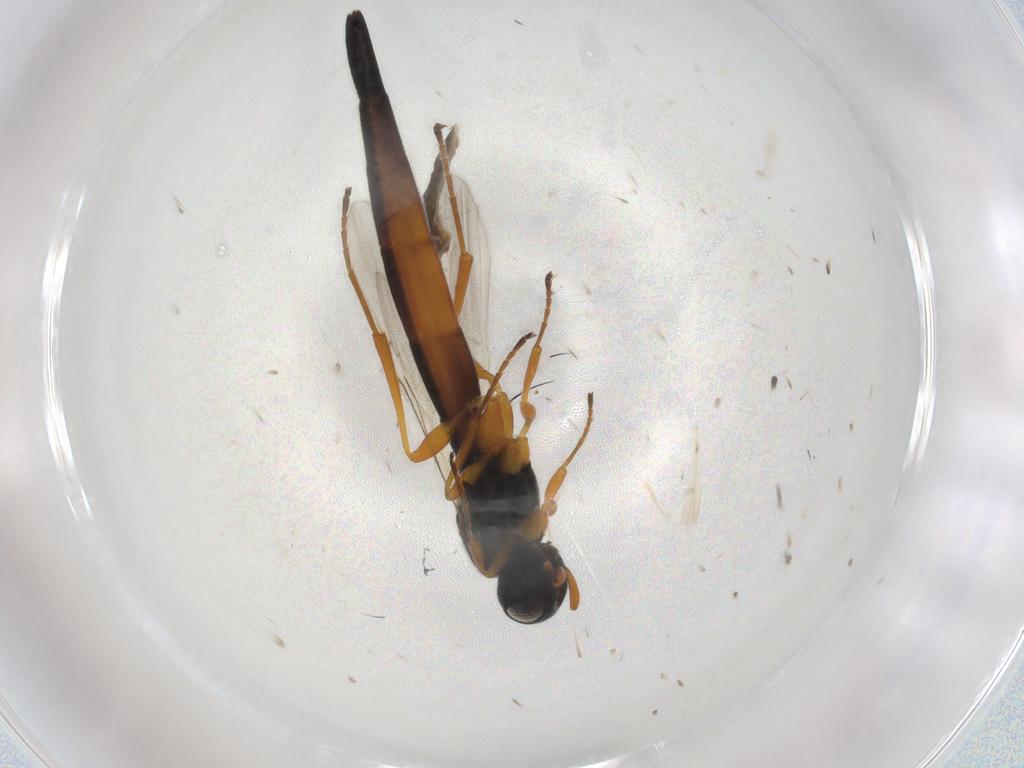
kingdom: Animalia
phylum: Arthropoda
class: Insecta
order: Hymenoptera
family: Scelionidae
